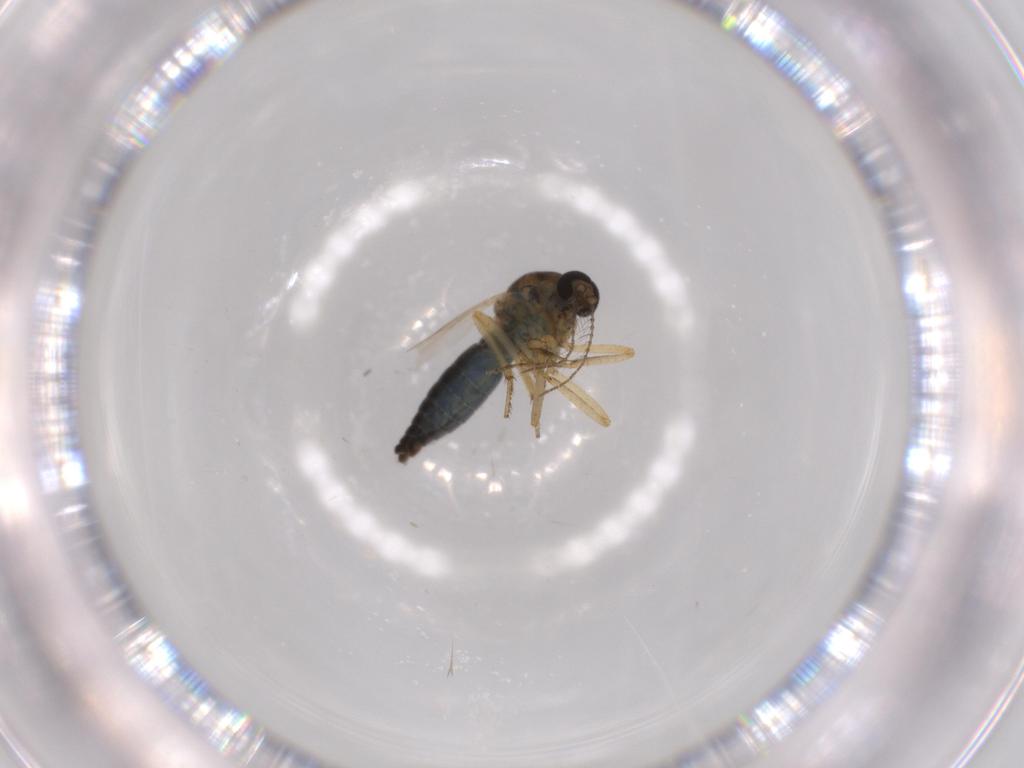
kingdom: Animalia
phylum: Arthropoda
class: Insecta
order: Diptera
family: Ceratopogonidae
